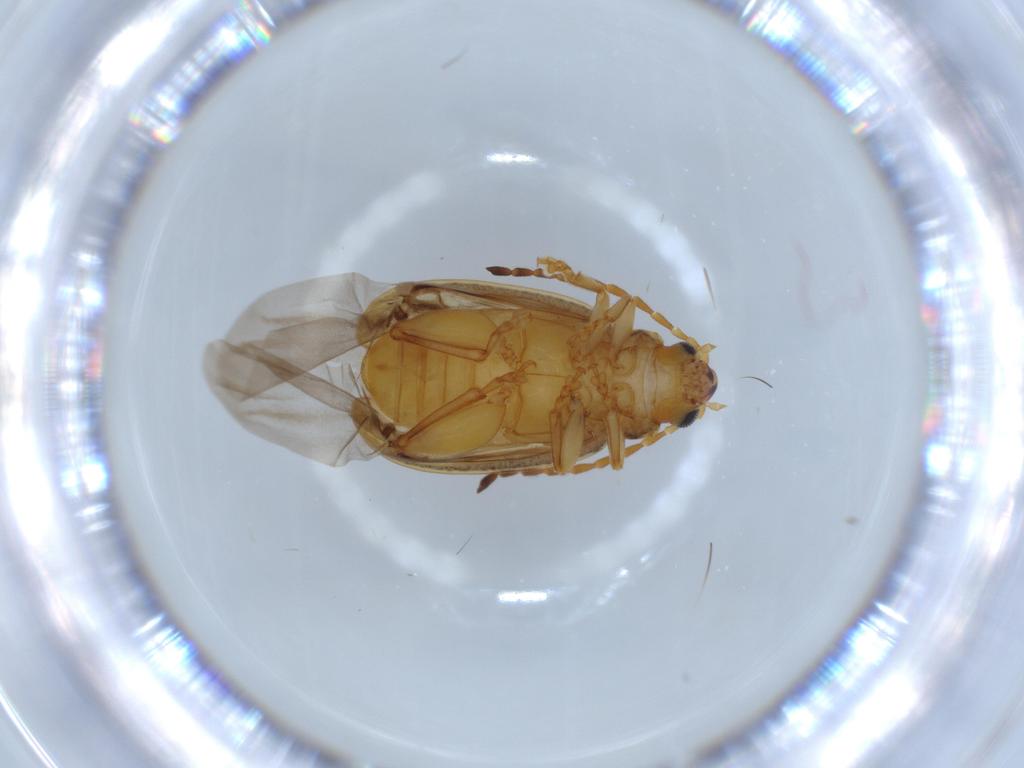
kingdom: Animalia
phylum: Arthropoda
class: Insecta
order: Coleoptera
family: Chrysomelidae
